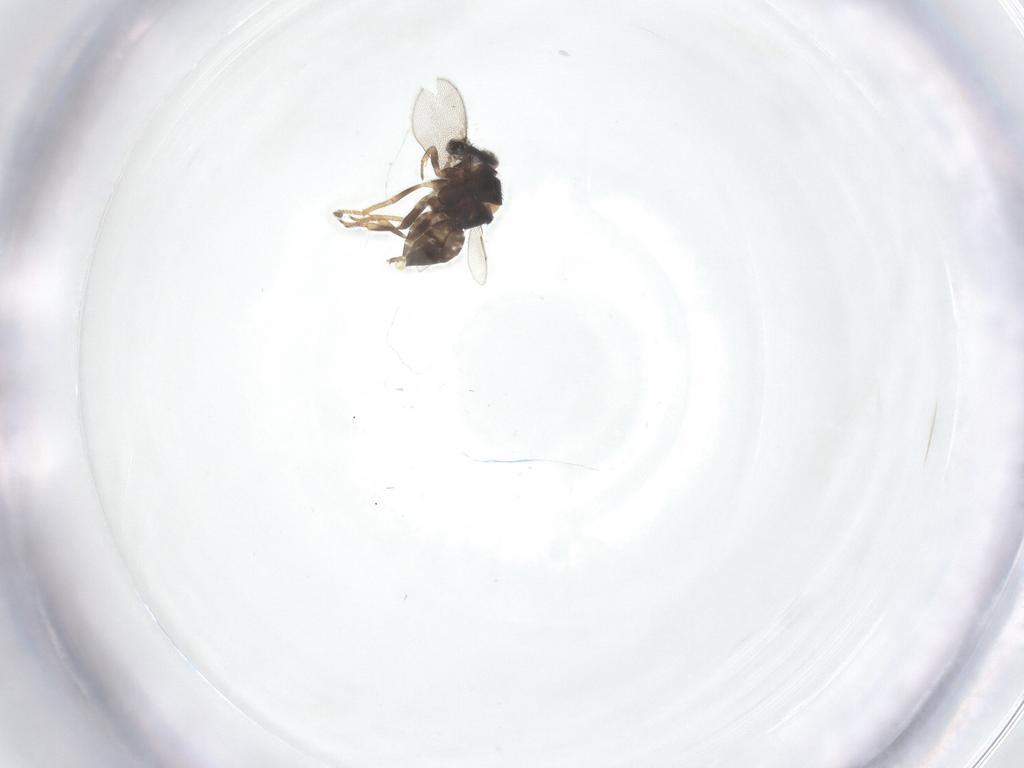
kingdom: Animalia
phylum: Arthropoda
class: Insecta
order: Hymenoptera
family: Encyrtidae
